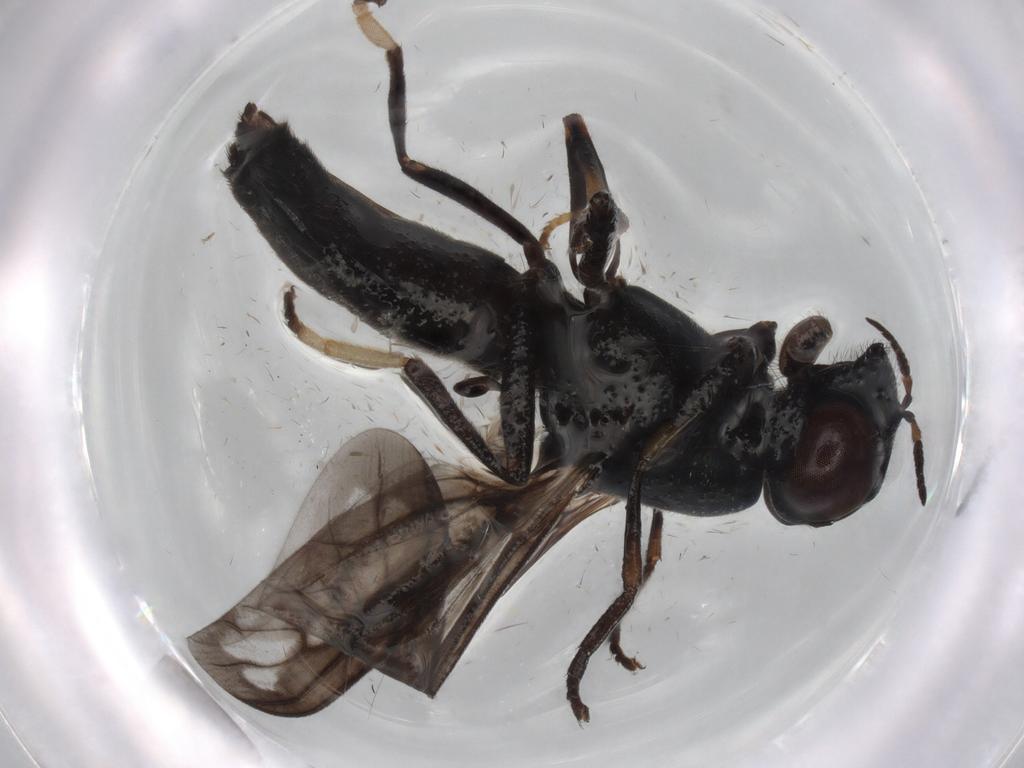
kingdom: Animalia
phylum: Arthropoda
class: Insecta
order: Diptera
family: Stratiomyidae
